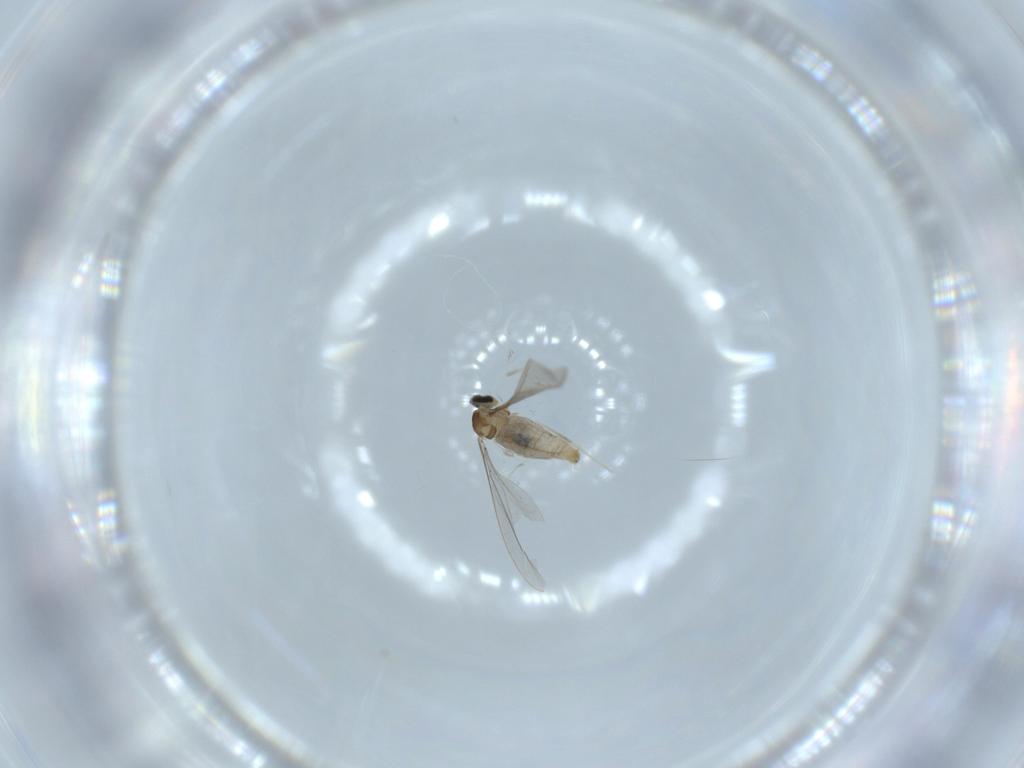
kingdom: Animalia
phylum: Arthropoda
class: Insecta
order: Diptera
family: Cecidomyiidae
